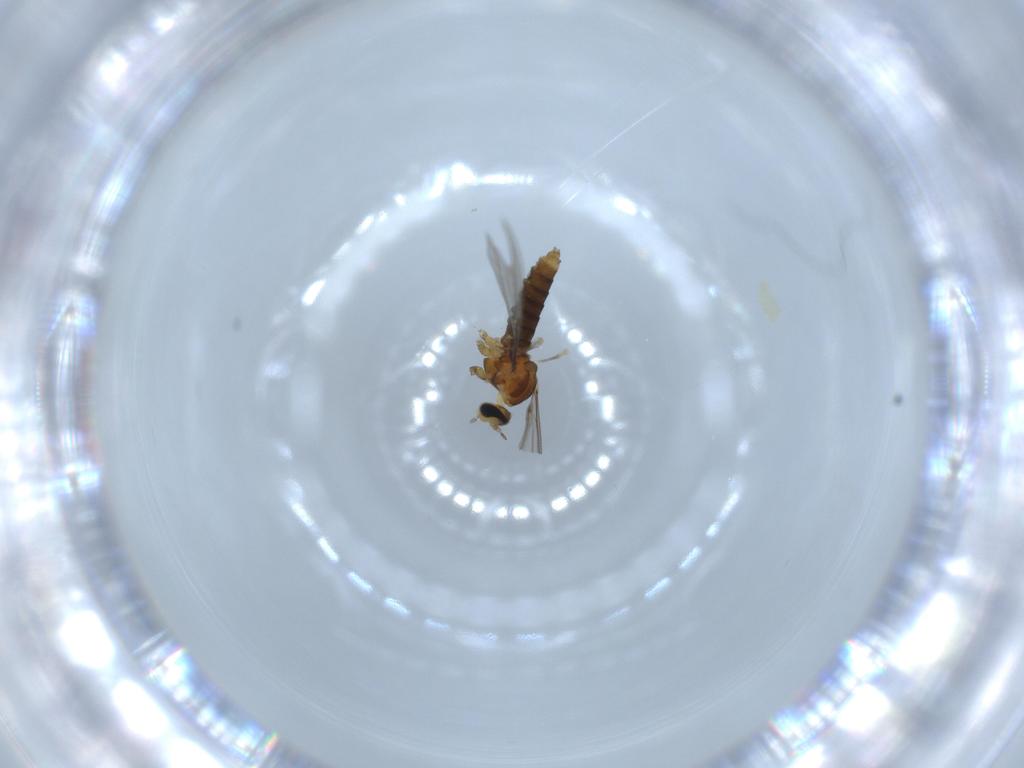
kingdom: Animalia
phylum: Arthropoda
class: Insecta
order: Diptera
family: Cecidomyiidae
